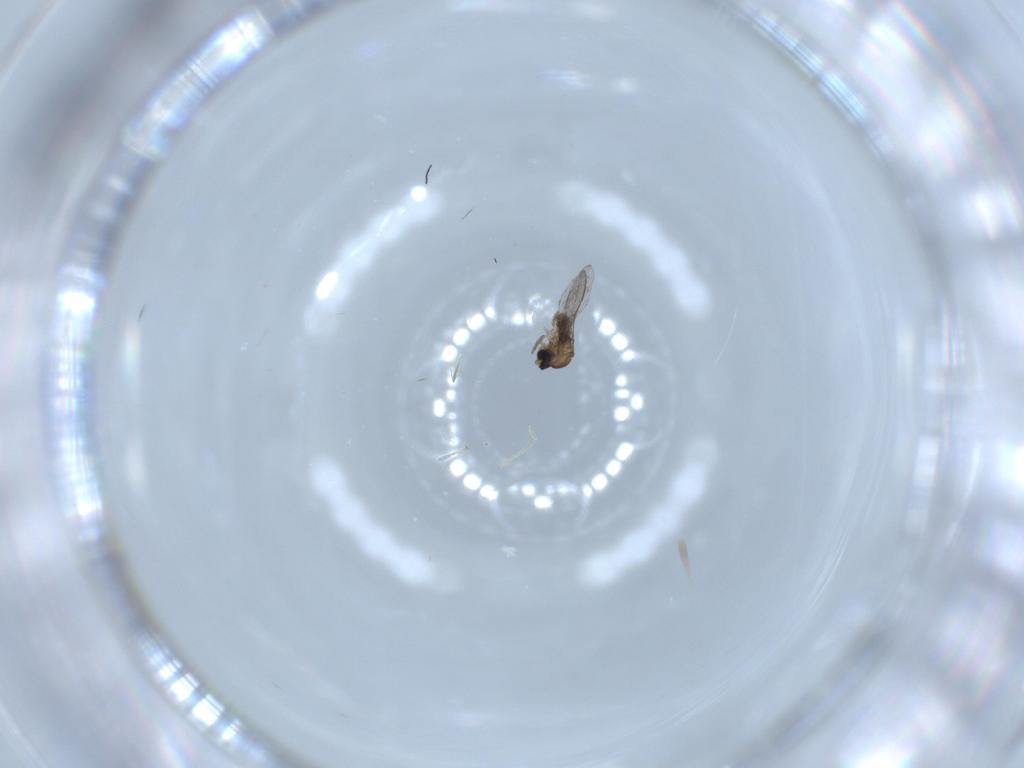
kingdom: Animalia
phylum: Arthropoda
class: Insecta
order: Diptera
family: Cecidomyiidae
